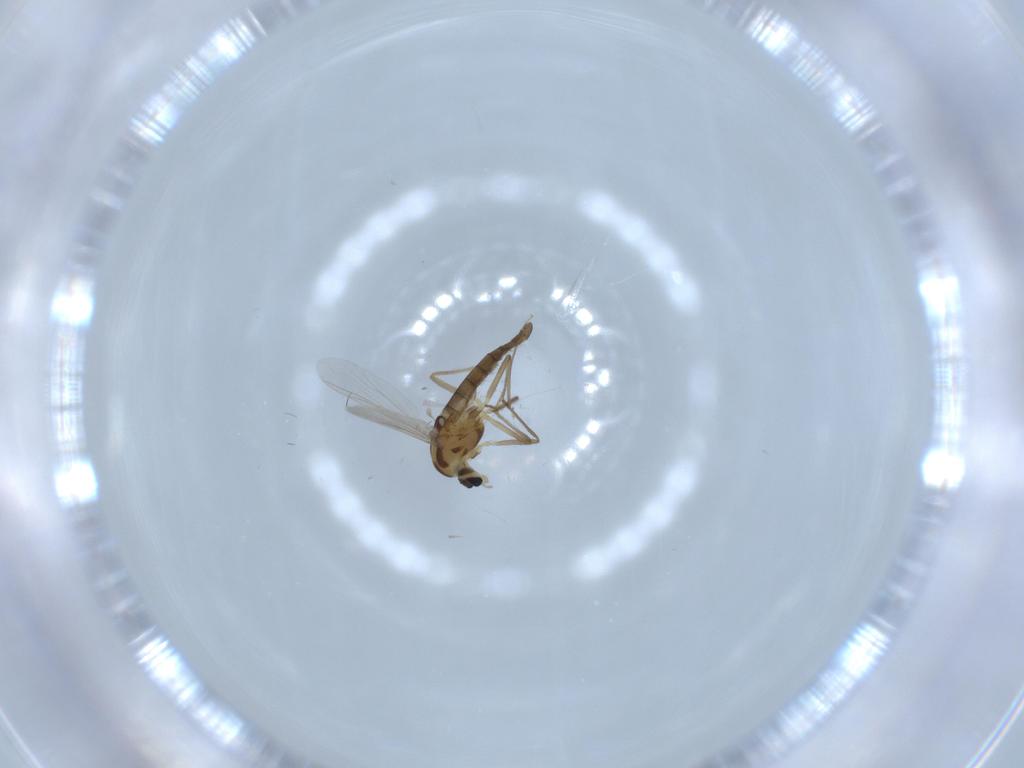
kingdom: Animalia
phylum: Arthropoda
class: Insecta
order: Diptera
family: Chironomidae
